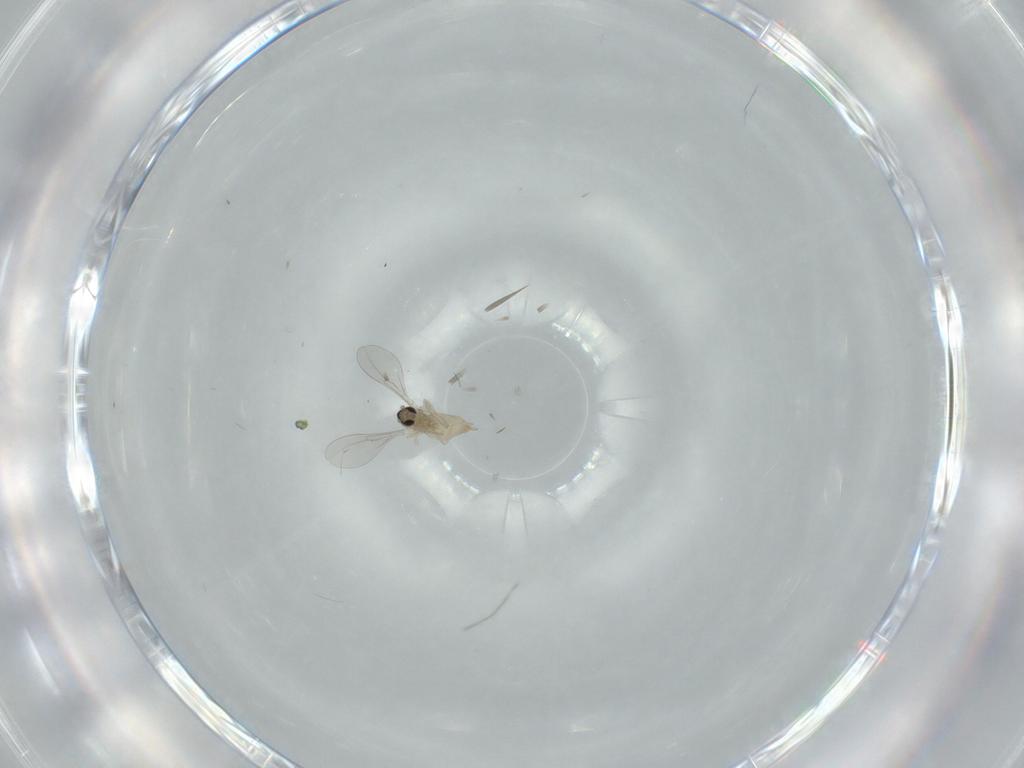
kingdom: Animalia
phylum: Arthropoda
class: Insecta
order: Diptera
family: Cecidomyiidae
